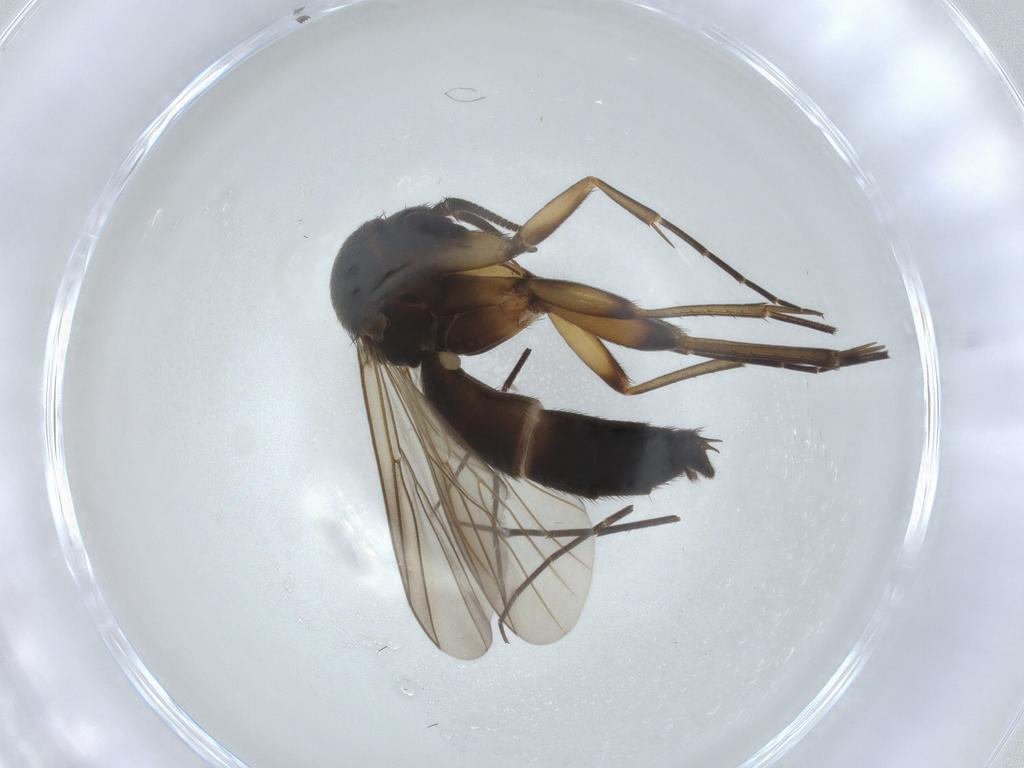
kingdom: Animalia
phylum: Arthropoda
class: Insecta
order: Diptera
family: Mycetophilidae
